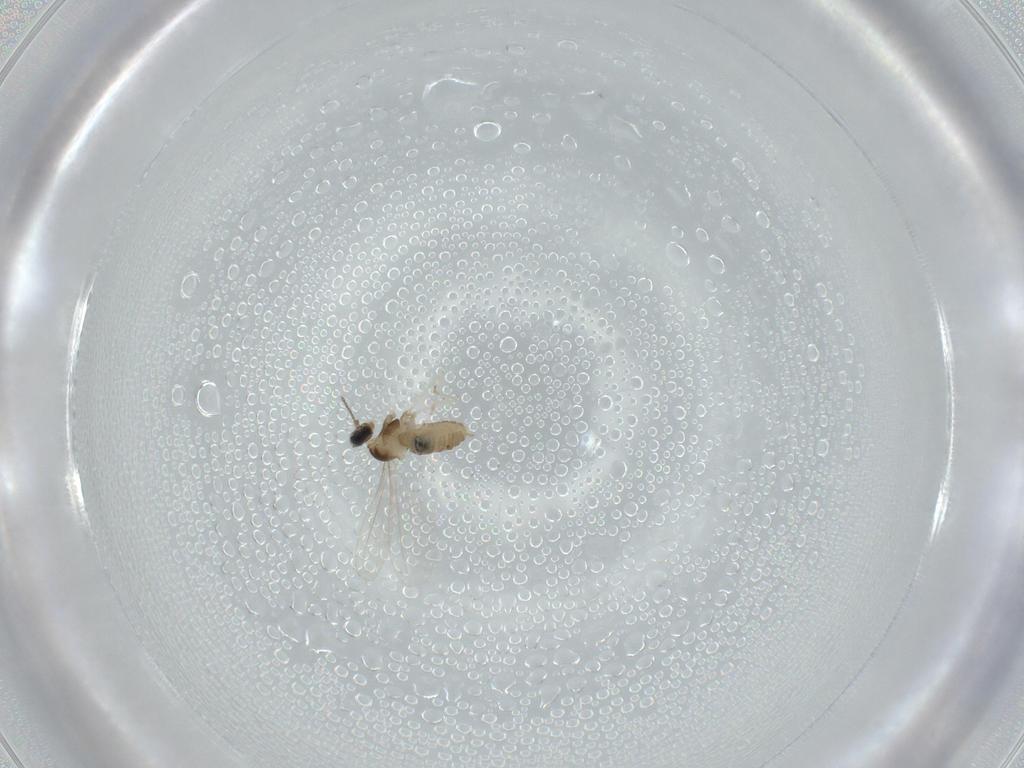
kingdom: Animalia
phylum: Arthropoda
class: Insecta
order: Diptera
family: Cecidomyiidae
